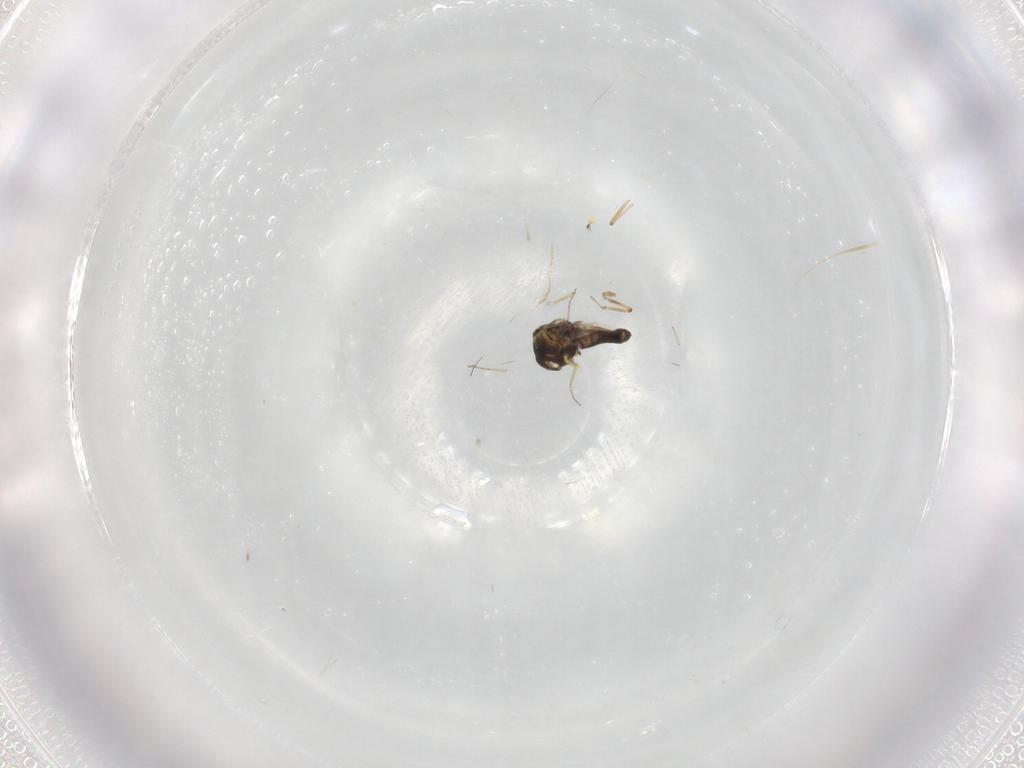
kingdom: Animalia
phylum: Arthropoda
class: Insecta
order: Diptera
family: Ceratopogonidae
